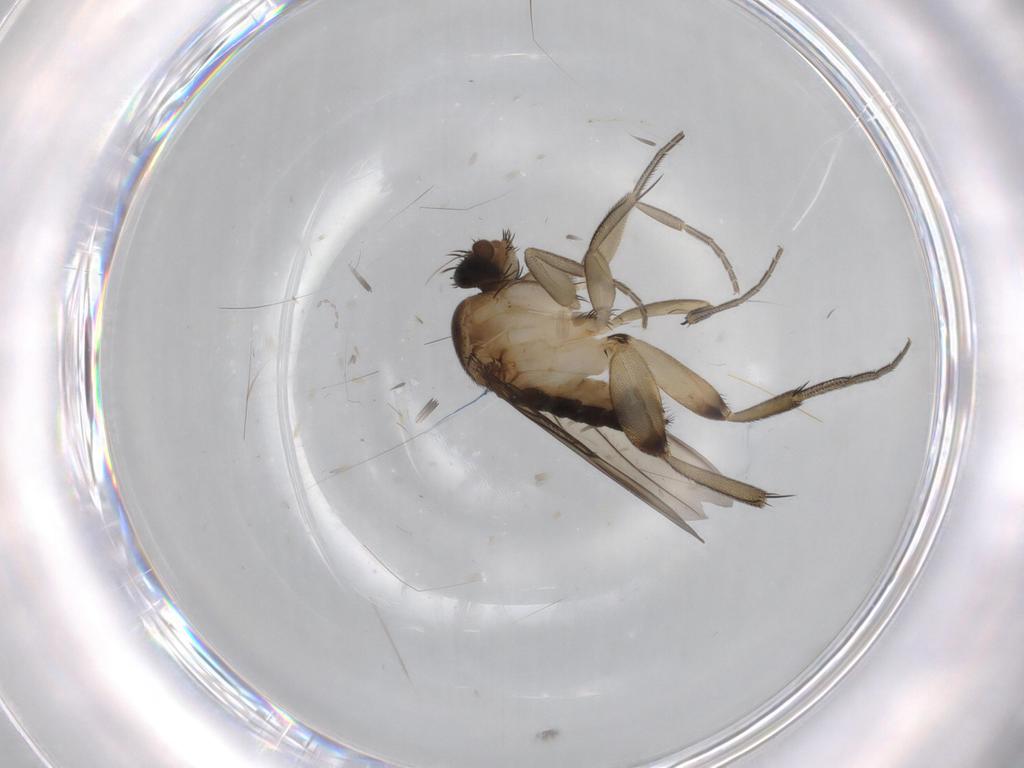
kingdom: Animalia
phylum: Arthropoda
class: Insecta
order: Diptera
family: Phoridae
